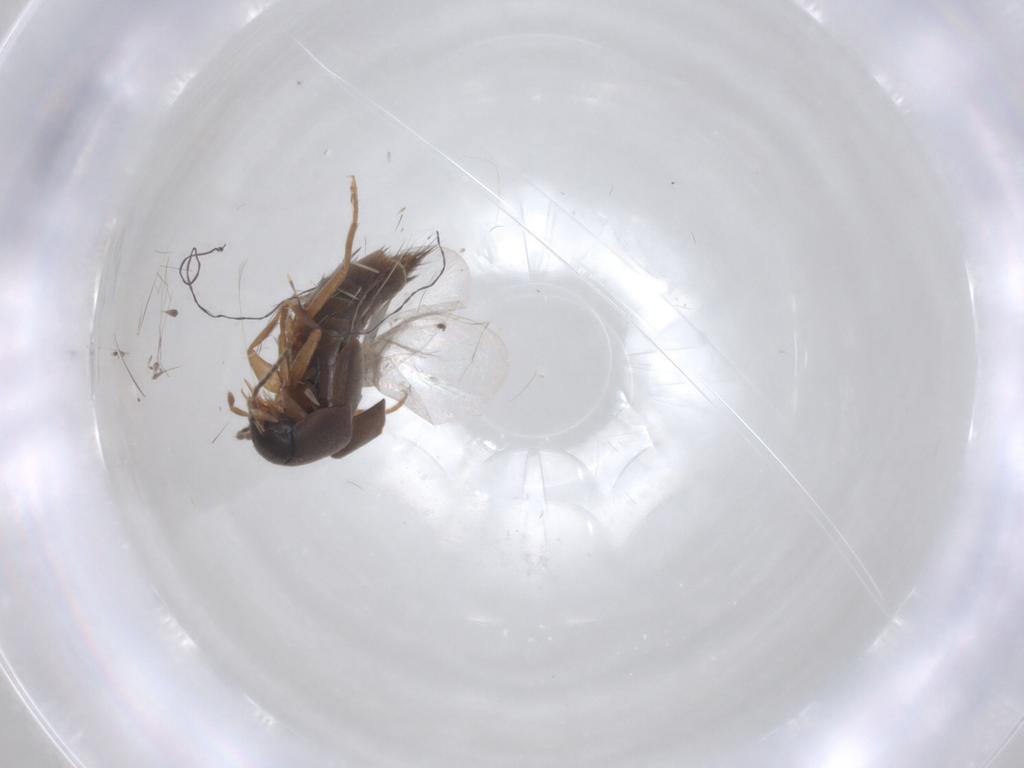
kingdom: Animalia
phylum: Arthropoda
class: Insecta
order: Coleoptera
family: Staphylinidae
